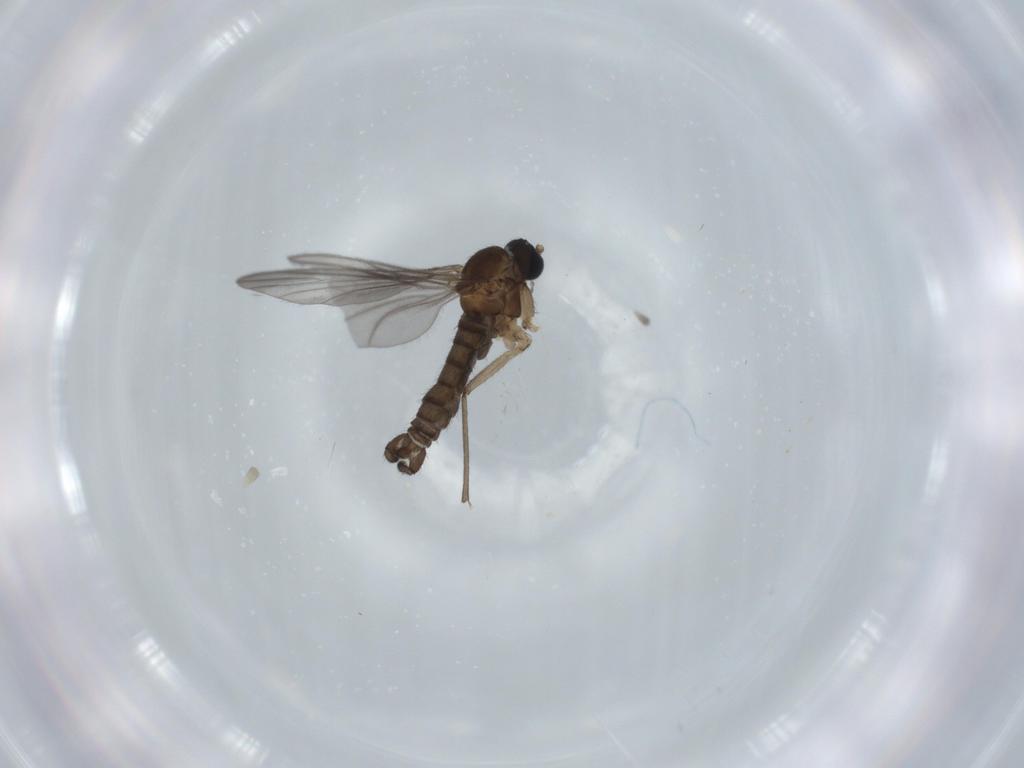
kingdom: Animalia
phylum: Arthropoda
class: Insecta
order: Diptera
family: Sciaridae
